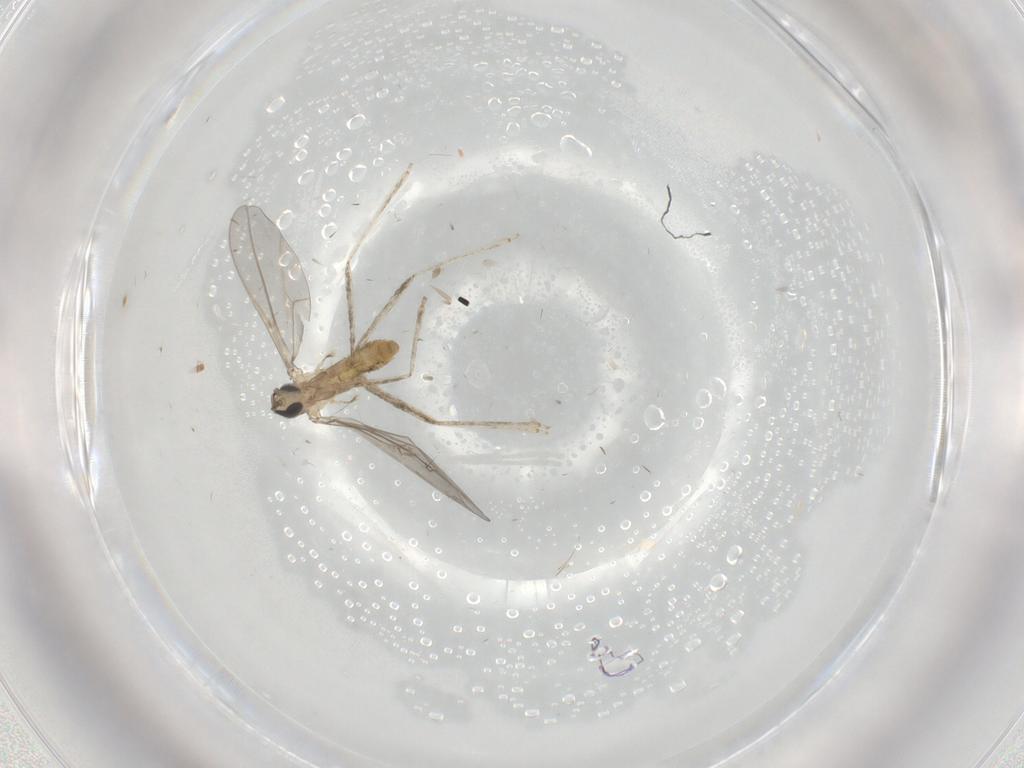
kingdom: Animalia
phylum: Arthropoda
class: Insecta
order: Diptera
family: Cecidomyiidae
